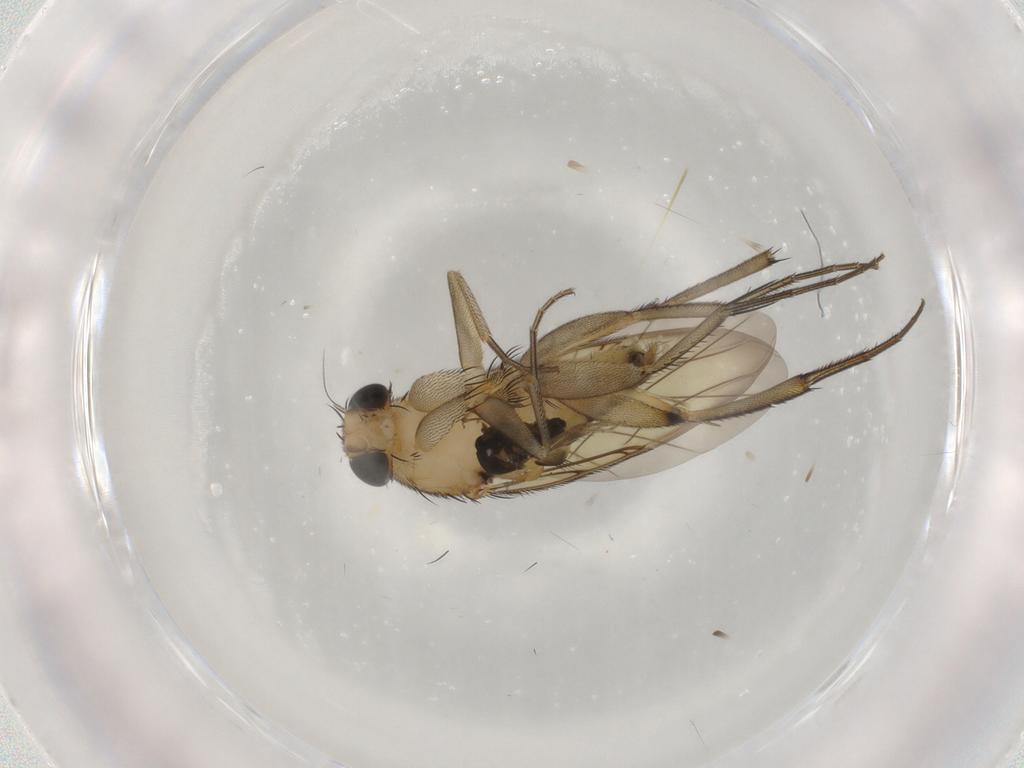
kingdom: Animalia
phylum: Arthropoda
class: Insecta
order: Diptera
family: Phoridae
